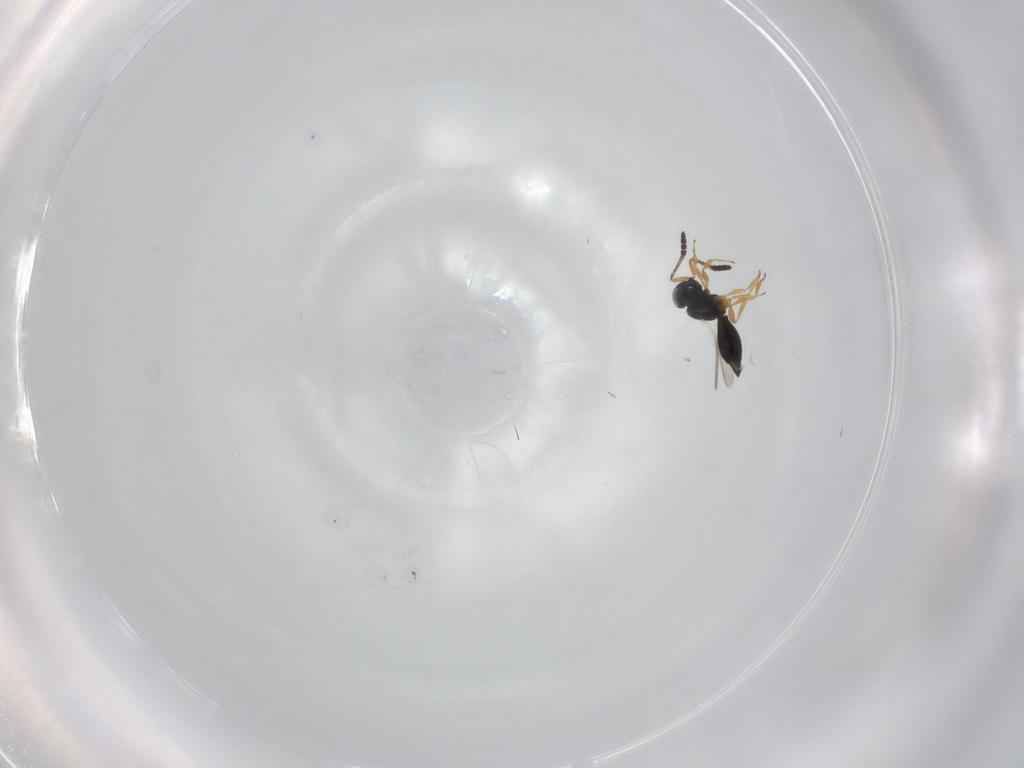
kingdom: Animalia
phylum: Arthropoda
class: Insecta
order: Hymenoptera
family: Scelionidae
